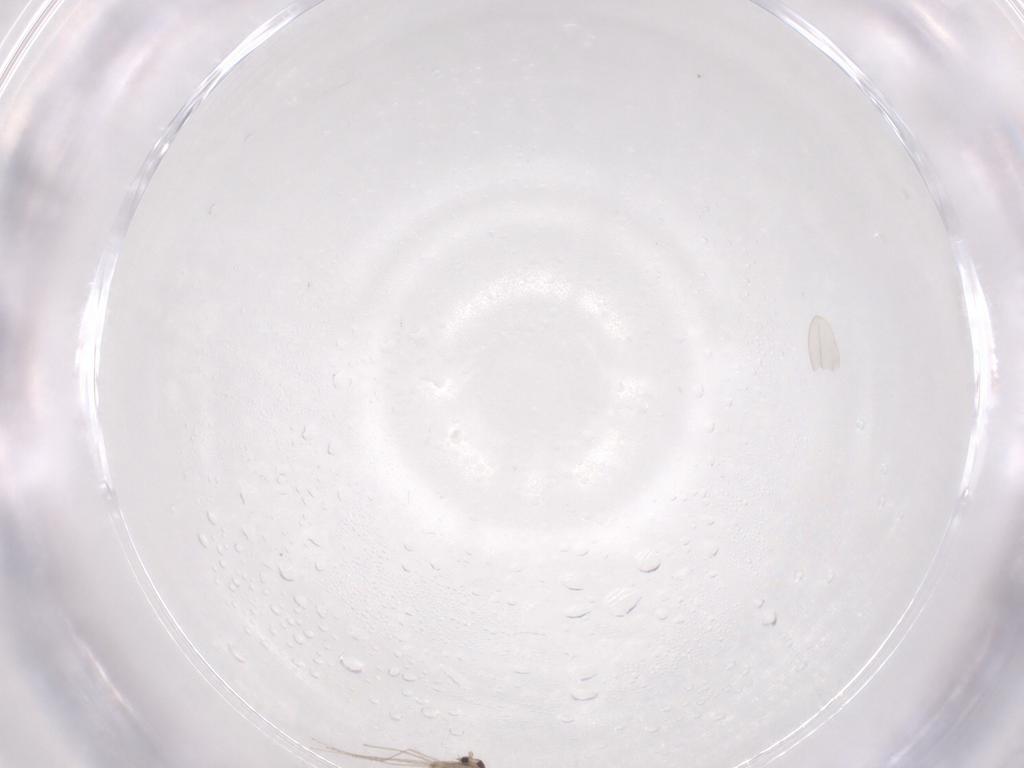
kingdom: Animalia
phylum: Arthropoda
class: Insecta
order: Diptera
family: Cecidomyiidae
